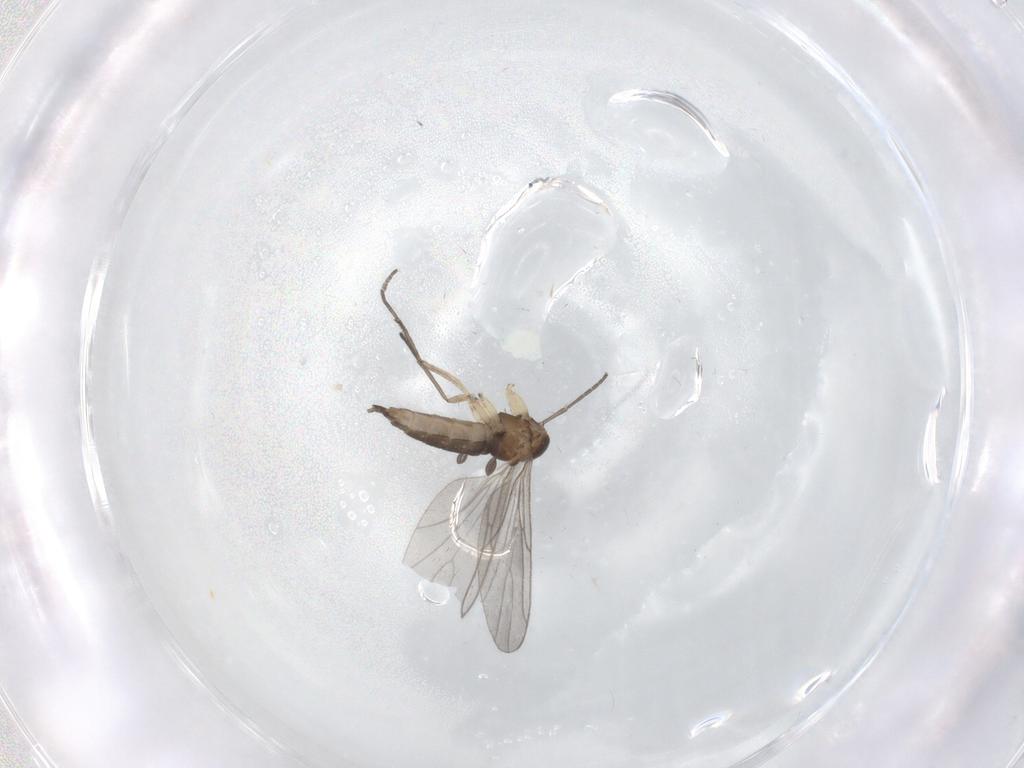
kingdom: Animalia
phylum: Arthropoda
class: Insecta
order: Diptera
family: Sciaridae
